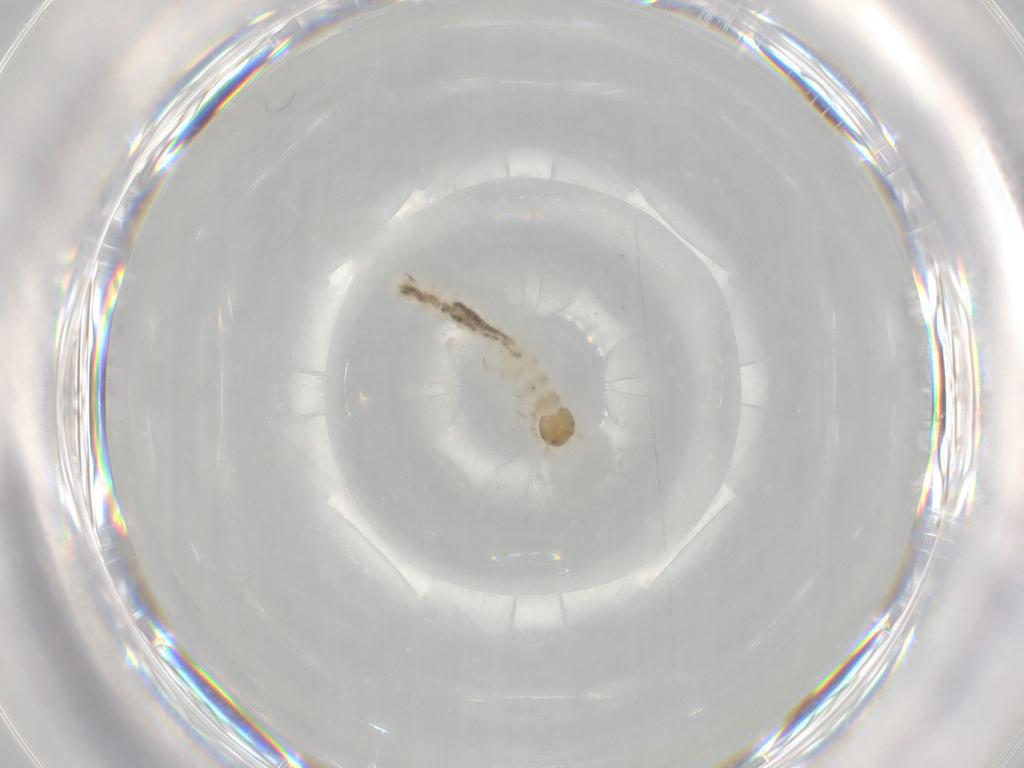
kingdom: Animalia
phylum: Arthropoda
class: Insecta
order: Coleoptera
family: Staphylinidae
